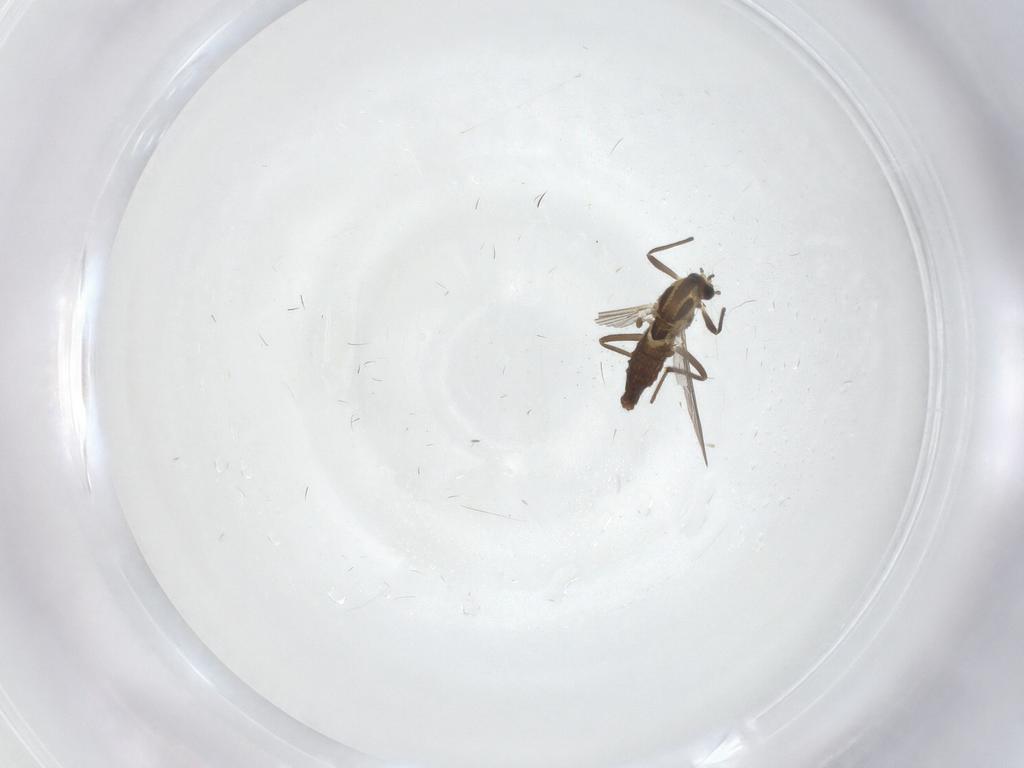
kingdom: Animalia
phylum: Arthropoda
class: Insecta
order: Diptera
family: Chironomidae
